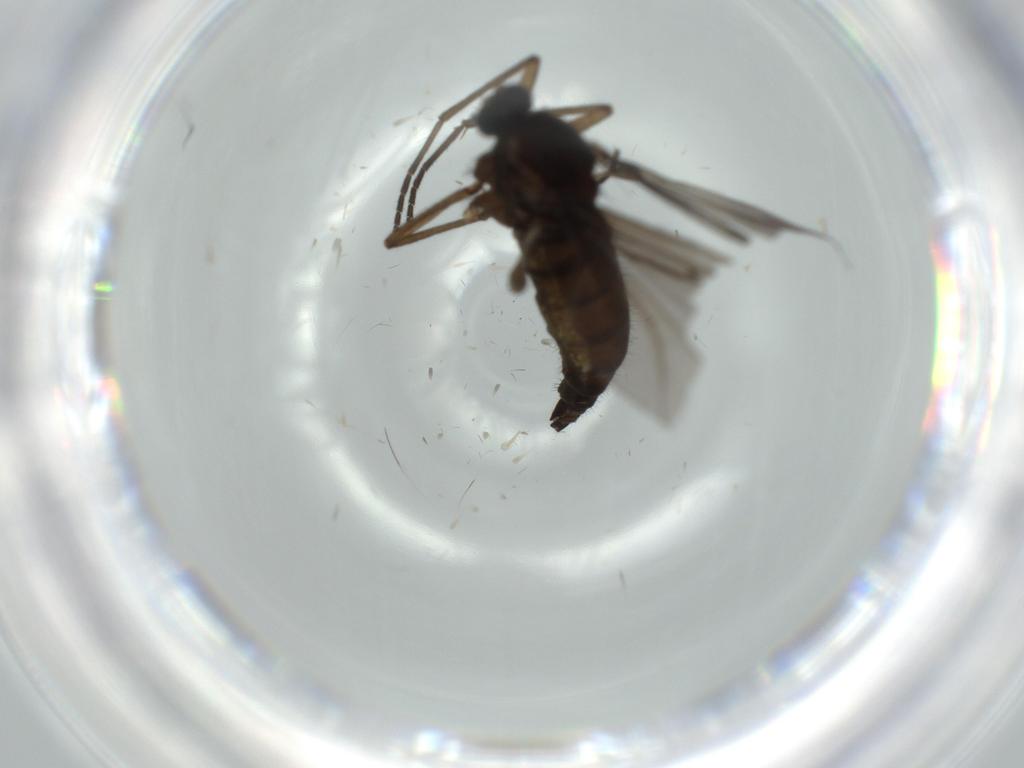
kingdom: Animalia
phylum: Arthropoda
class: Insecta
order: Diptera
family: Sciaridae
